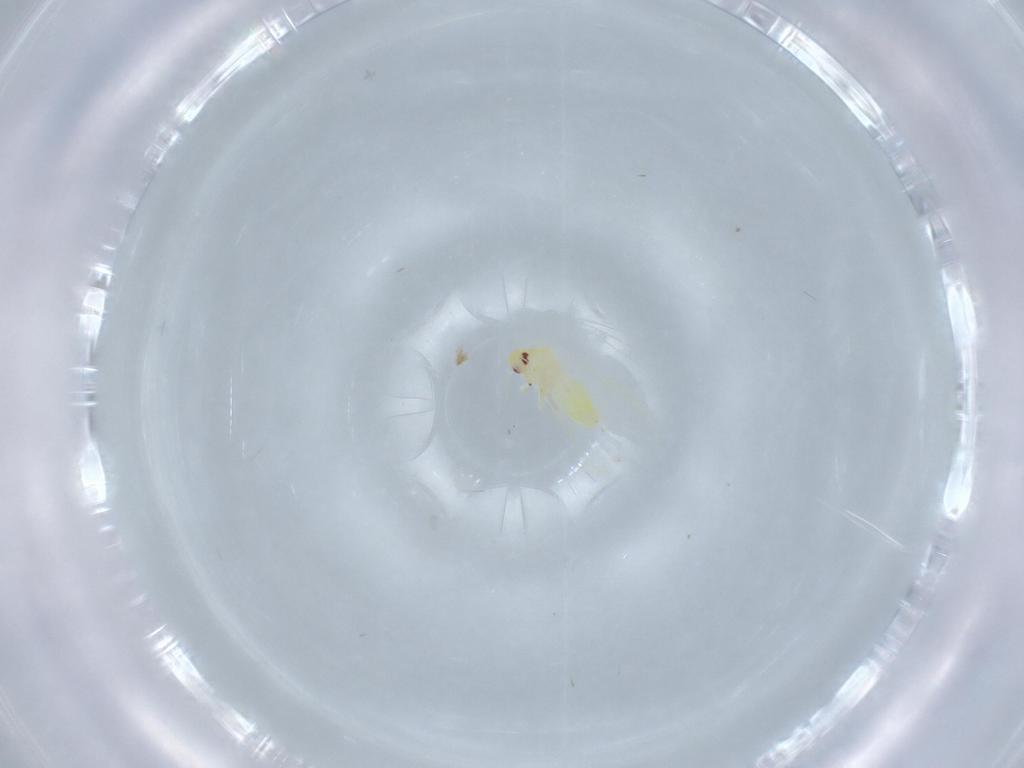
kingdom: Animalia
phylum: Arthropoda
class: Insecta
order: Hemiptera
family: Aleyrodidae
